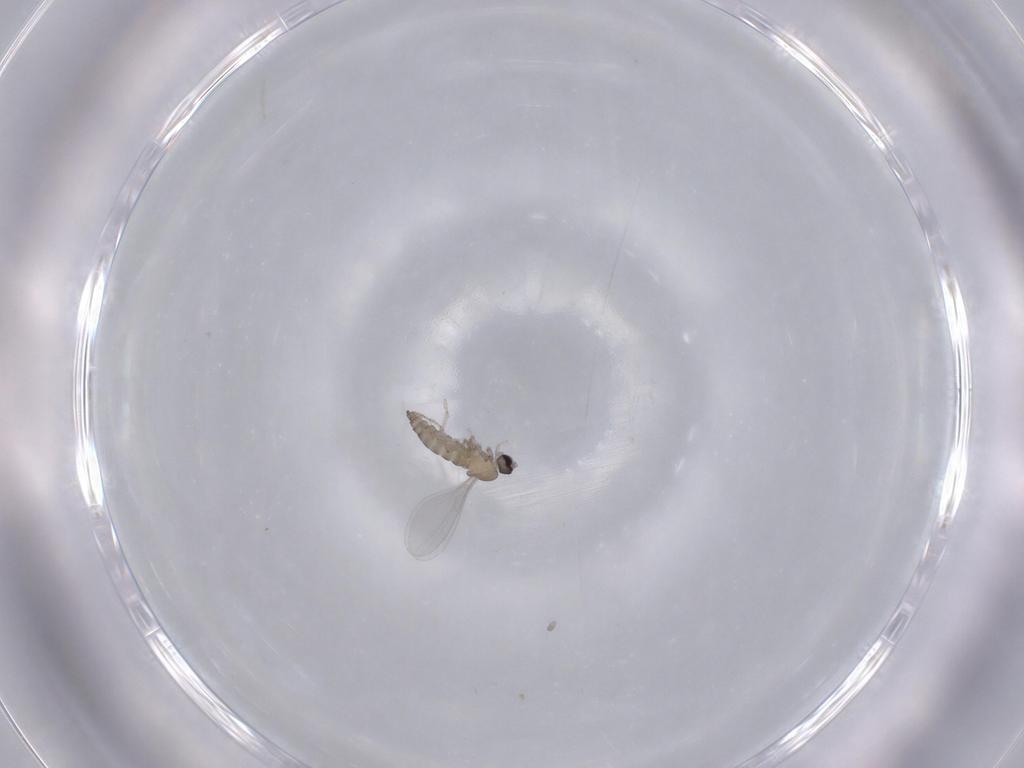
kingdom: Animalia
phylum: Arthropoda
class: Insecta
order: Diptera
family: Cecidomyiidae
